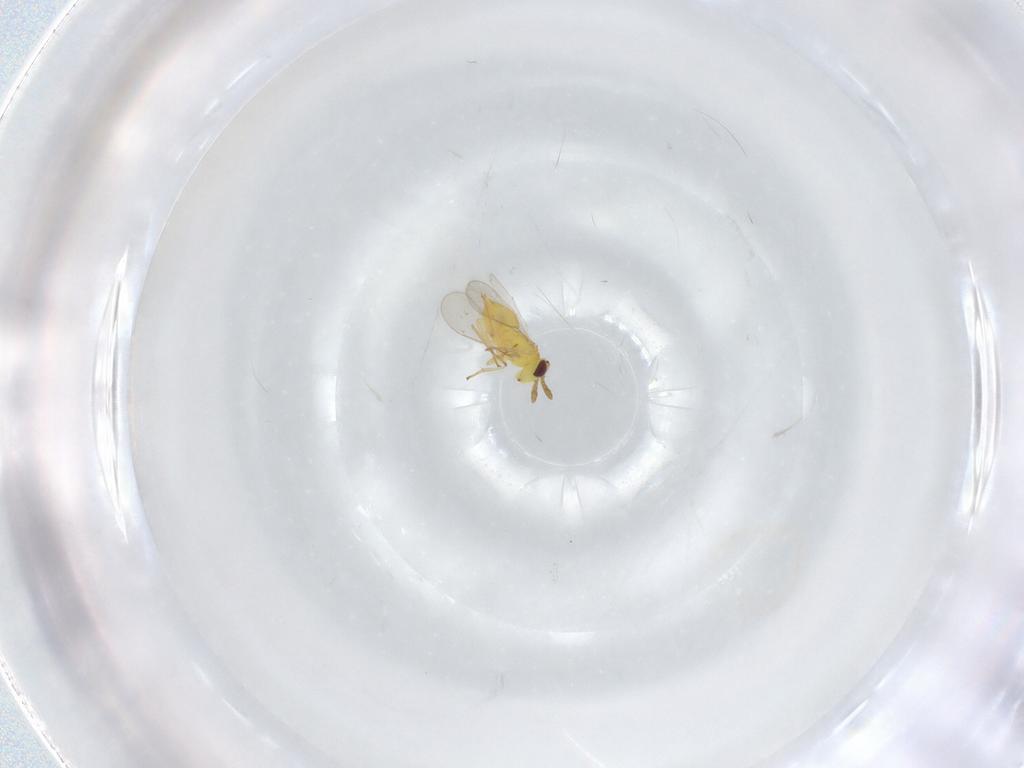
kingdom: Animalia
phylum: Arthropoda
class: Insecta
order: Hymenoptera
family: Aphelinidae
